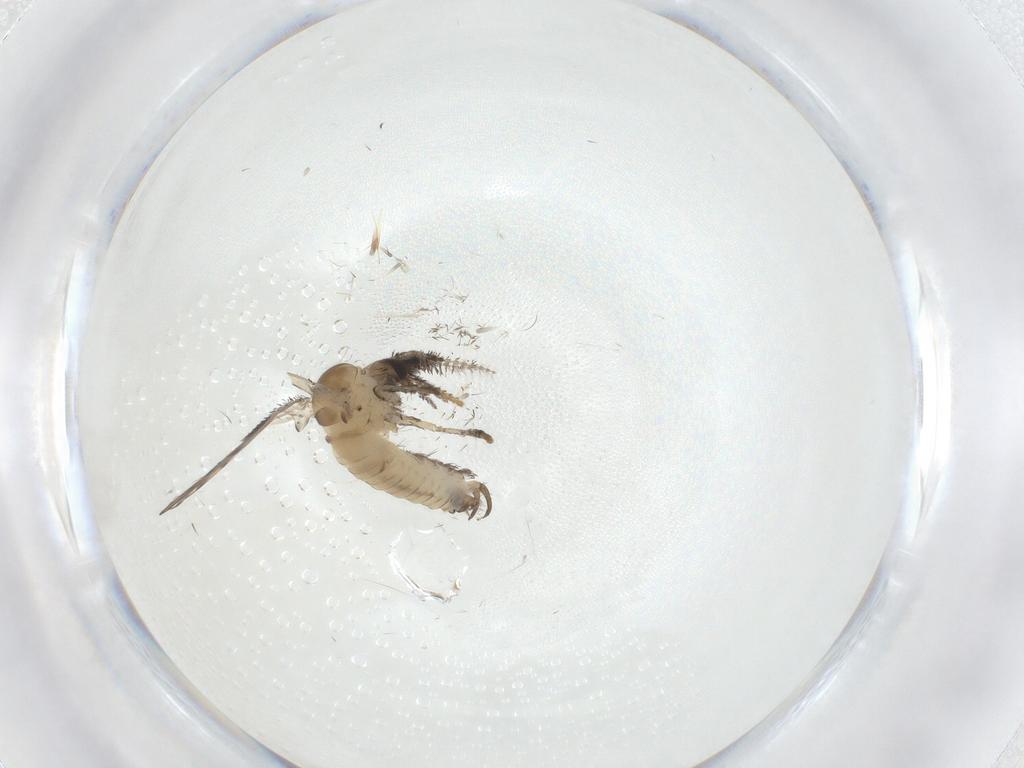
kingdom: Animalia
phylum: Arthropoda
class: Insecta
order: Diptera
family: Psychodidae
